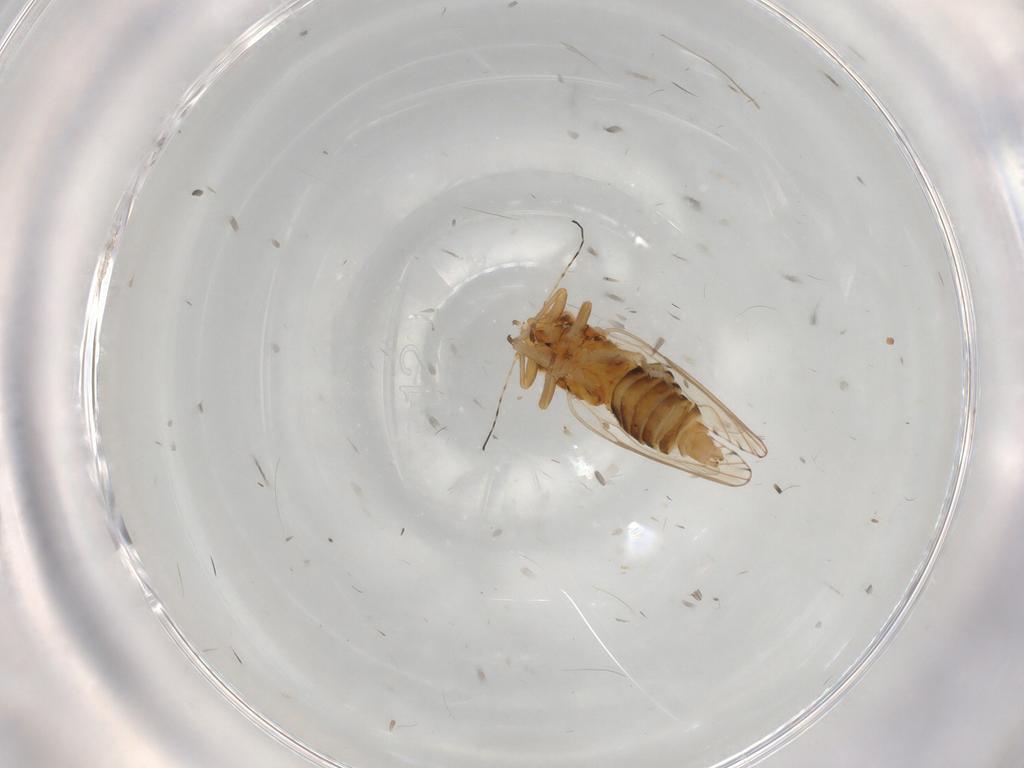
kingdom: Animalia
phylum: Arthropoda
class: Insecta
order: Hemiptera
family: Psylloidea_incertae_sedis
